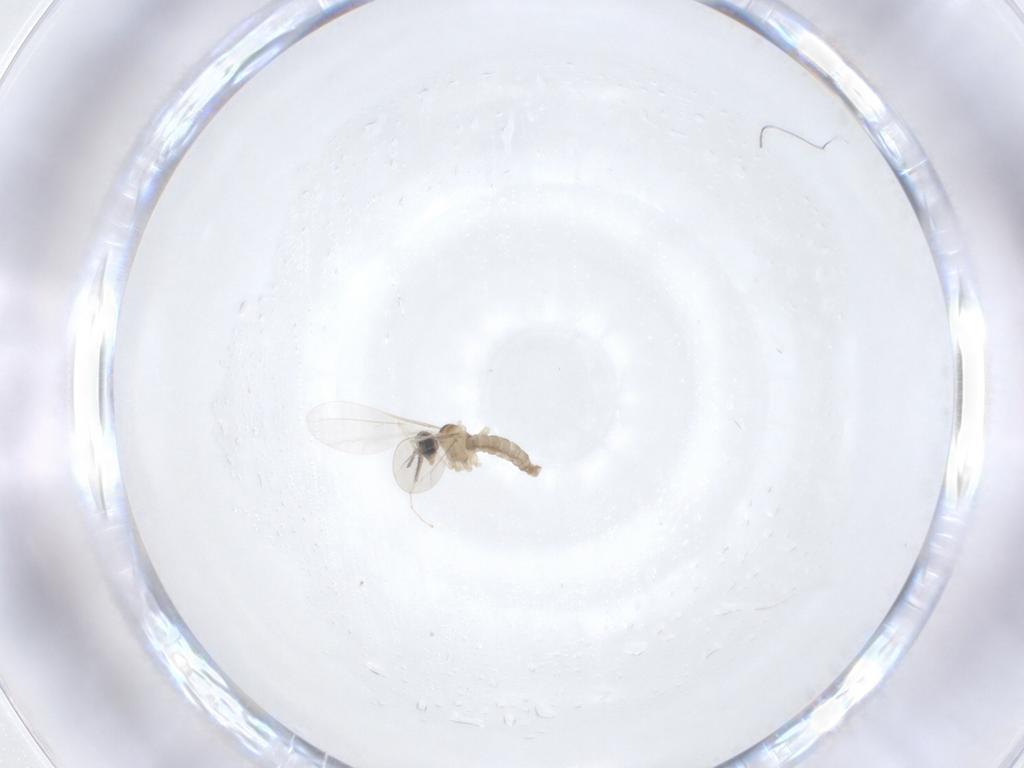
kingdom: Animalia
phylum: Arthropoda
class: Insecta
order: Diptera
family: Cecidomyiidae
